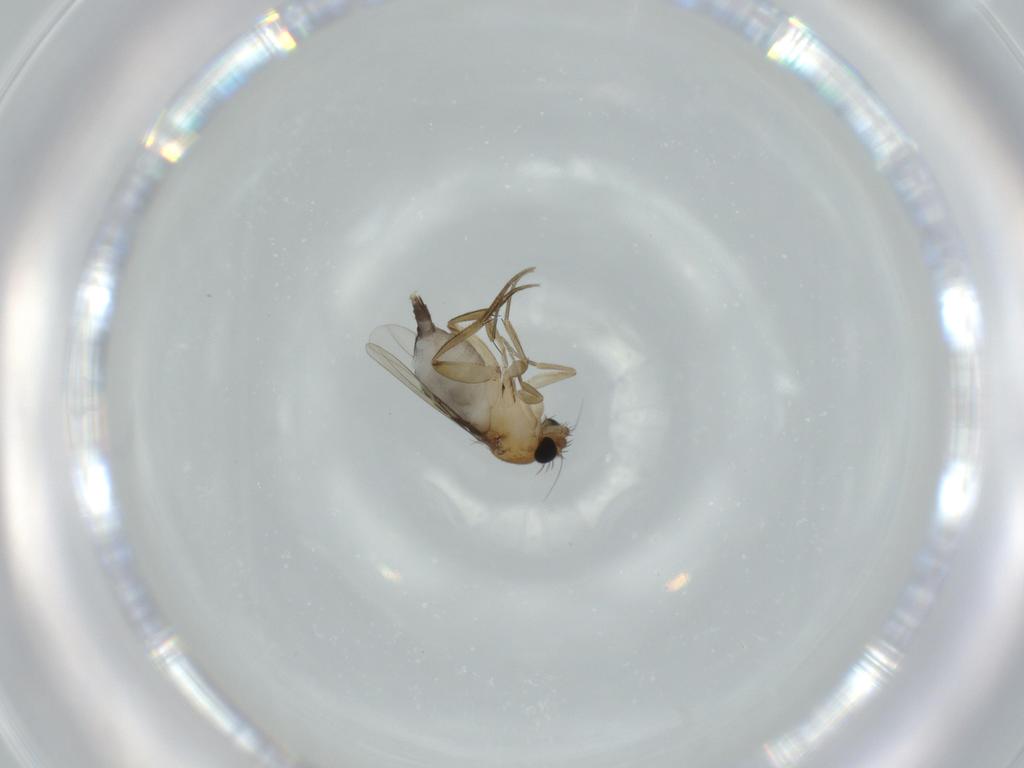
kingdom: Animalia
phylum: Arthropoda
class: Insecta
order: Diptera
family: Phoridae
